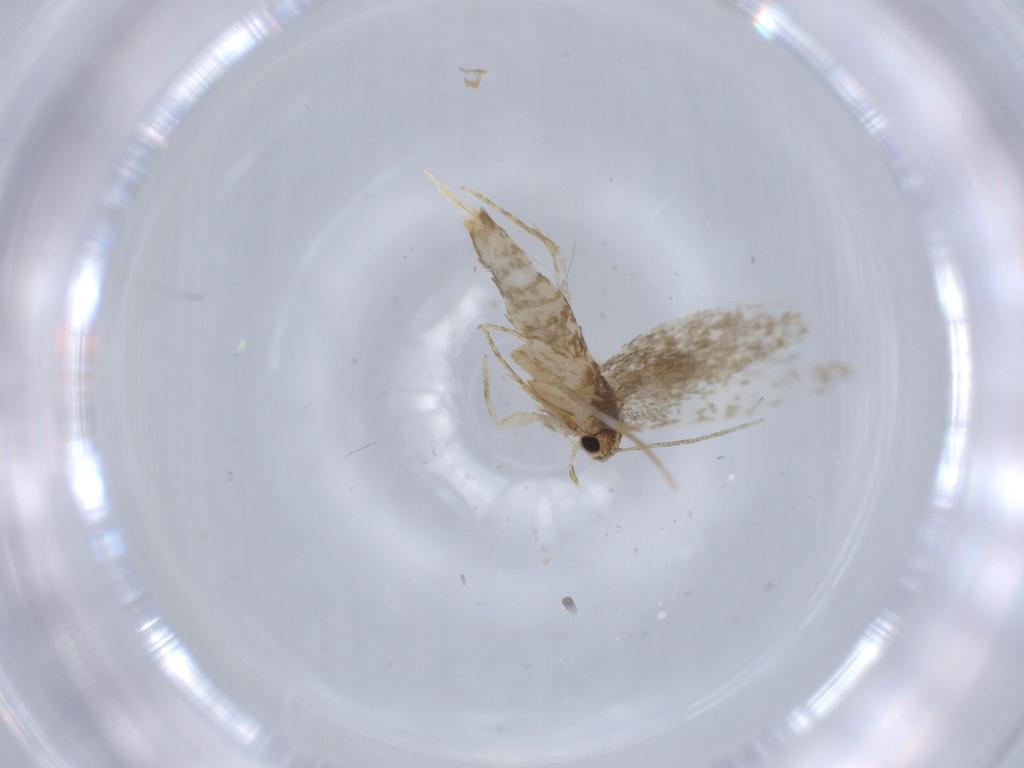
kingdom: Animalia
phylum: Arthropoda
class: Insecta
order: Lepidoptera
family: Tineidae
